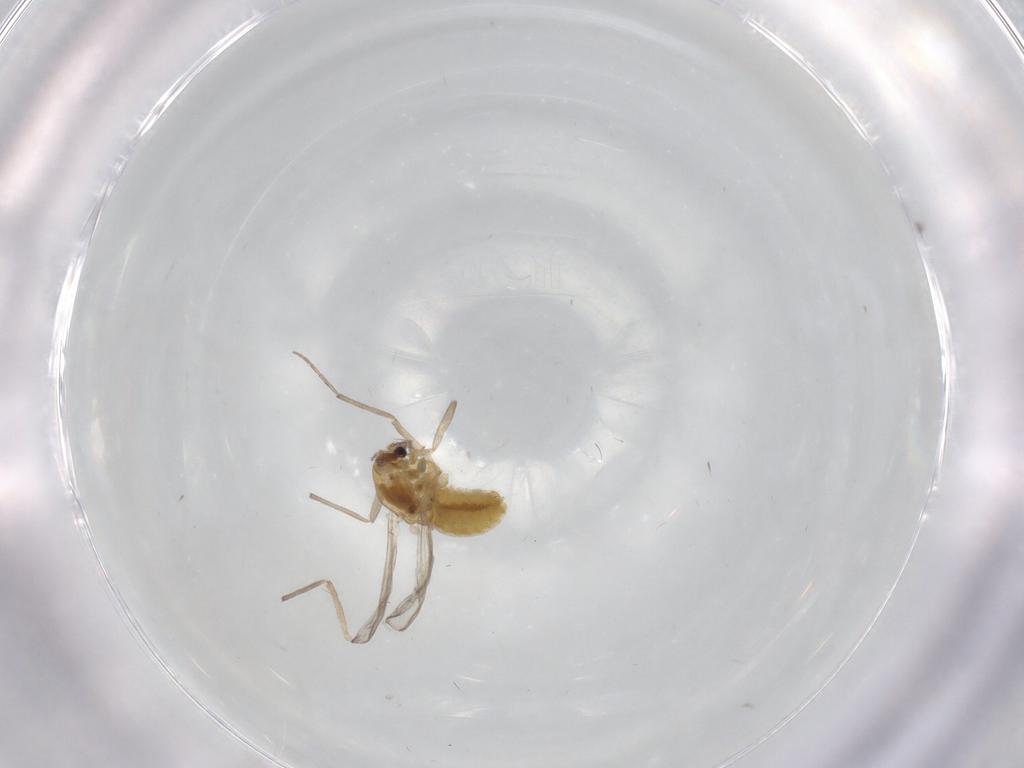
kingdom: Animalia
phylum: Arthropoda
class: Insecta
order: Diptera
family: Chironomidae
